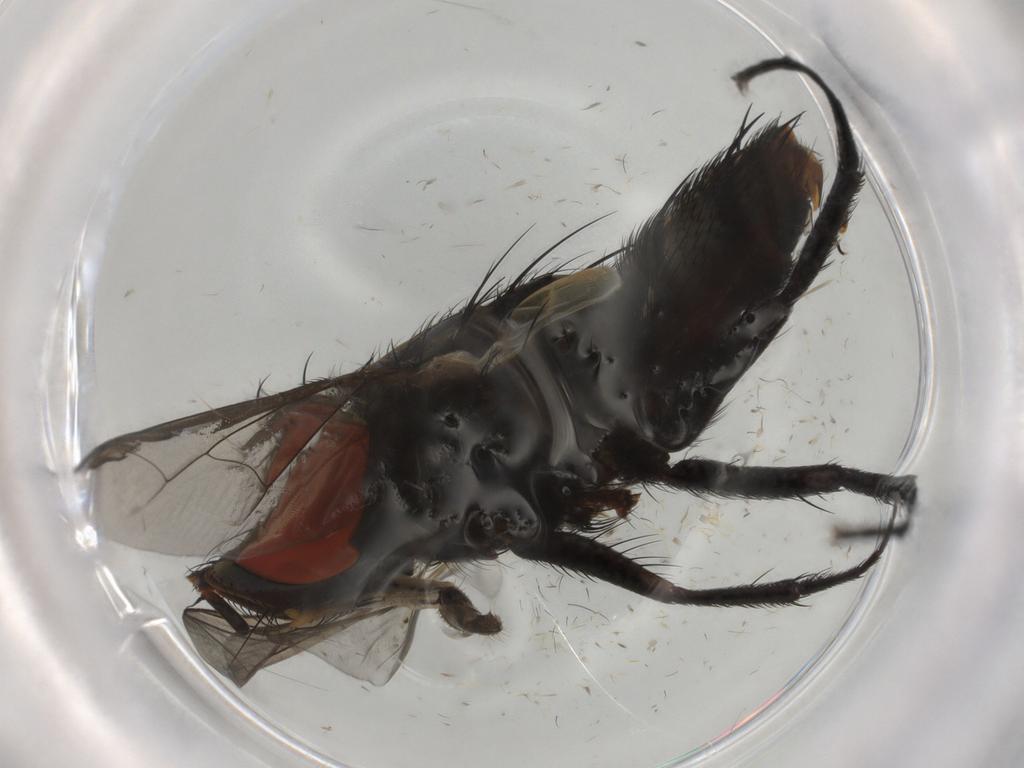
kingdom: Animalia
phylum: Arthropoda
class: Insecta
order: Diptera
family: Sarcophagidae
